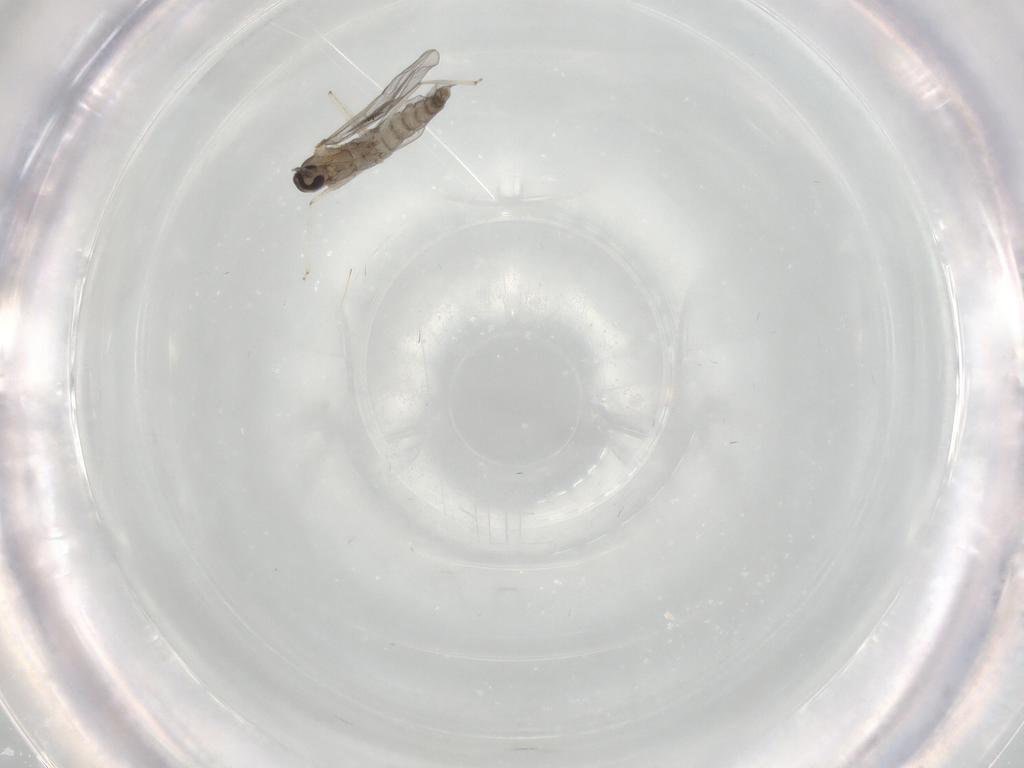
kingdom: Animalia
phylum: Arthropoda
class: Insecta
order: Diptera
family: Cecidomyiidae
